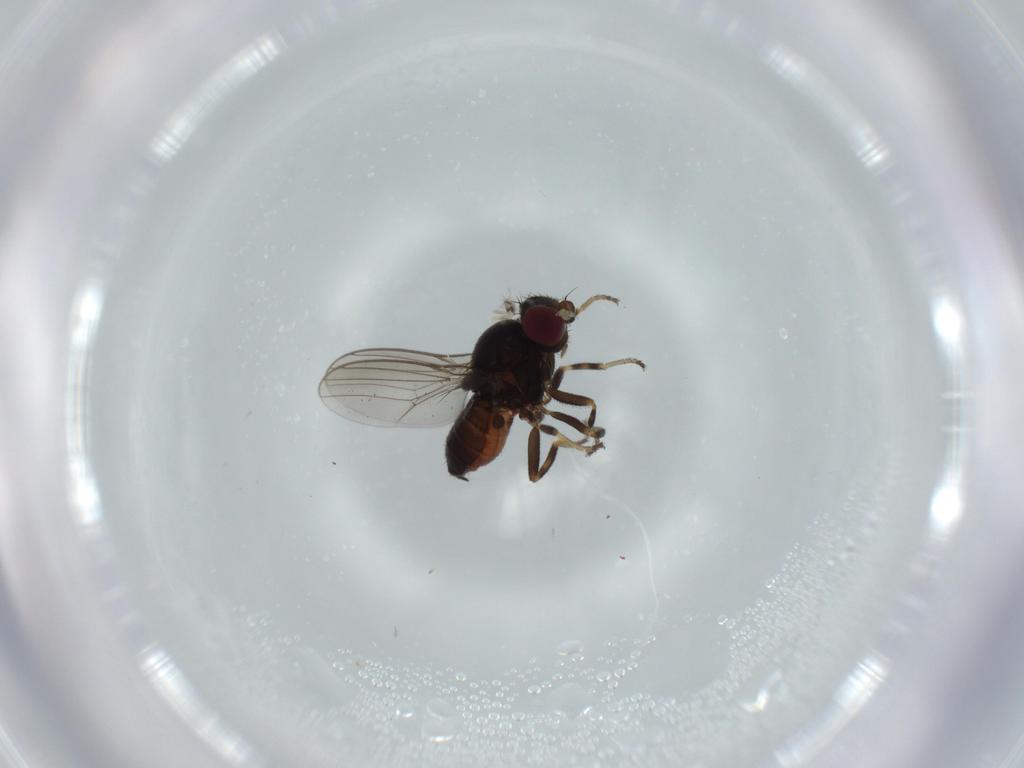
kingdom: Animalia
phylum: Arthropoda
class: Insecta
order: Diptera
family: Chloropidae
